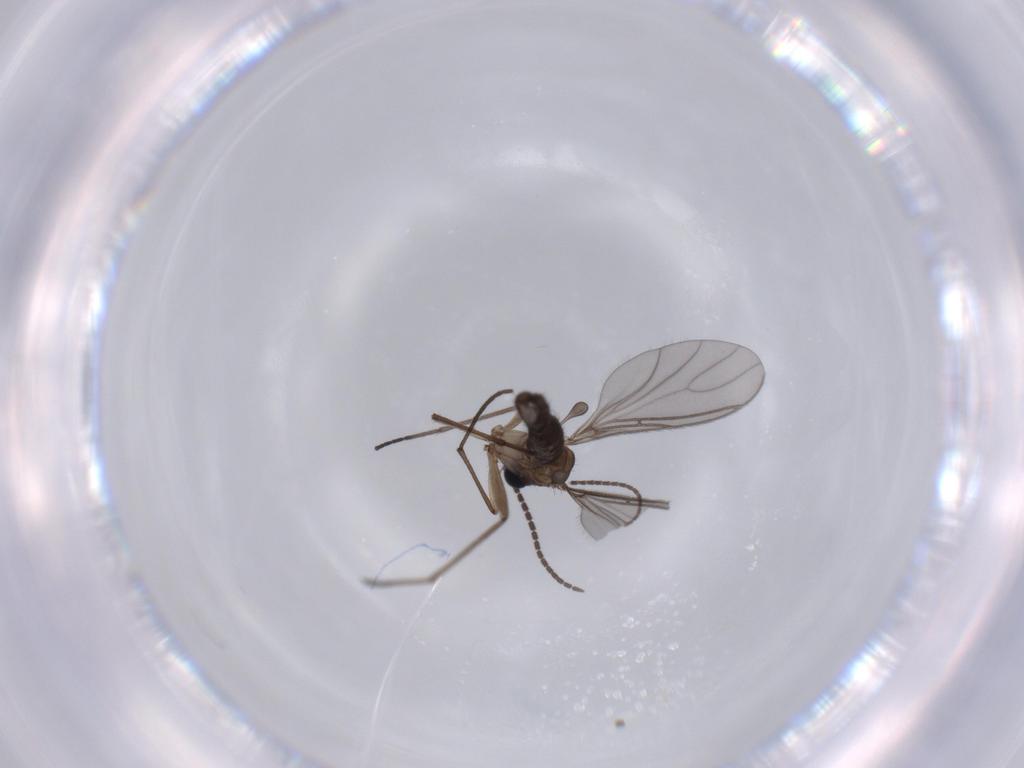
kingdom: Animalia
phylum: Arthropoda
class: Insecta
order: Diptera
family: Sciaridae
